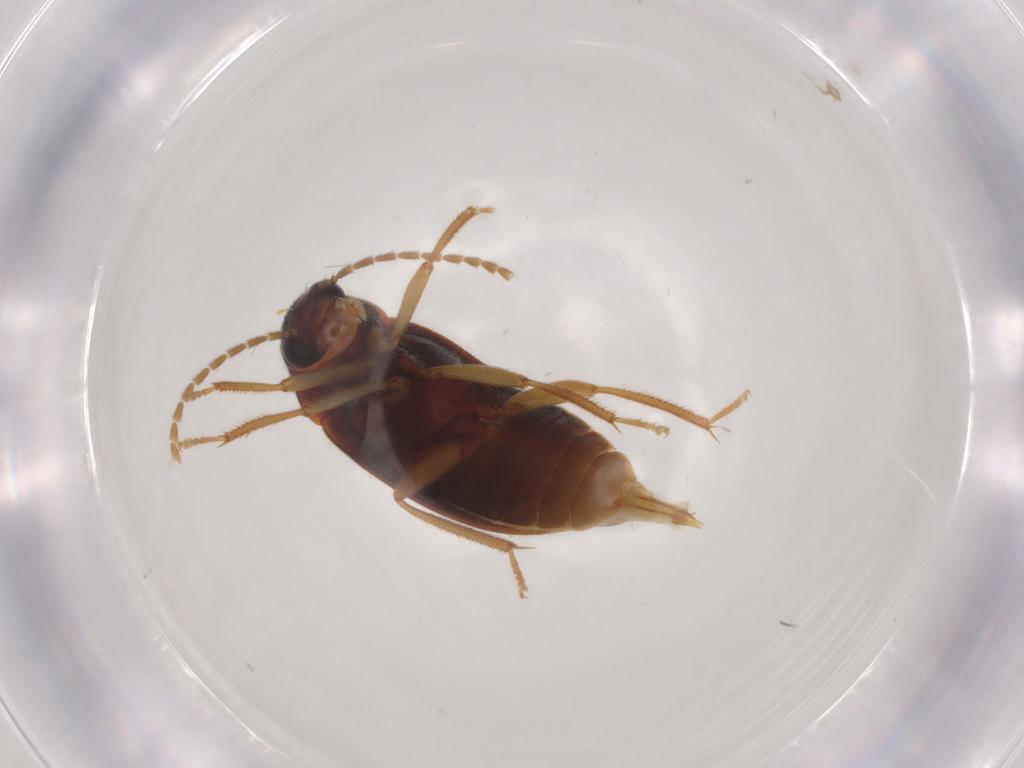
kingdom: Animalia
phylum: Arthropoda
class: Insecta
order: Coleoptera
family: Ptilodactylidae
